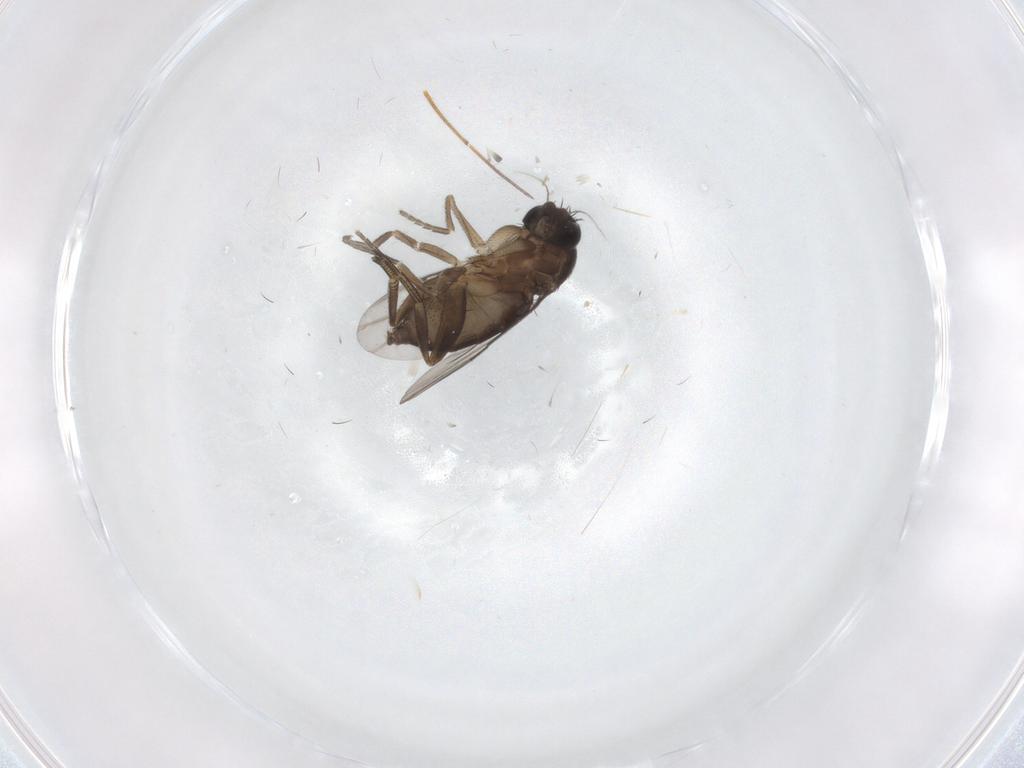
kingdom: Animalia
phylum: Arthropoda
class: Insecta
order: Diptera
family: Phoridae
